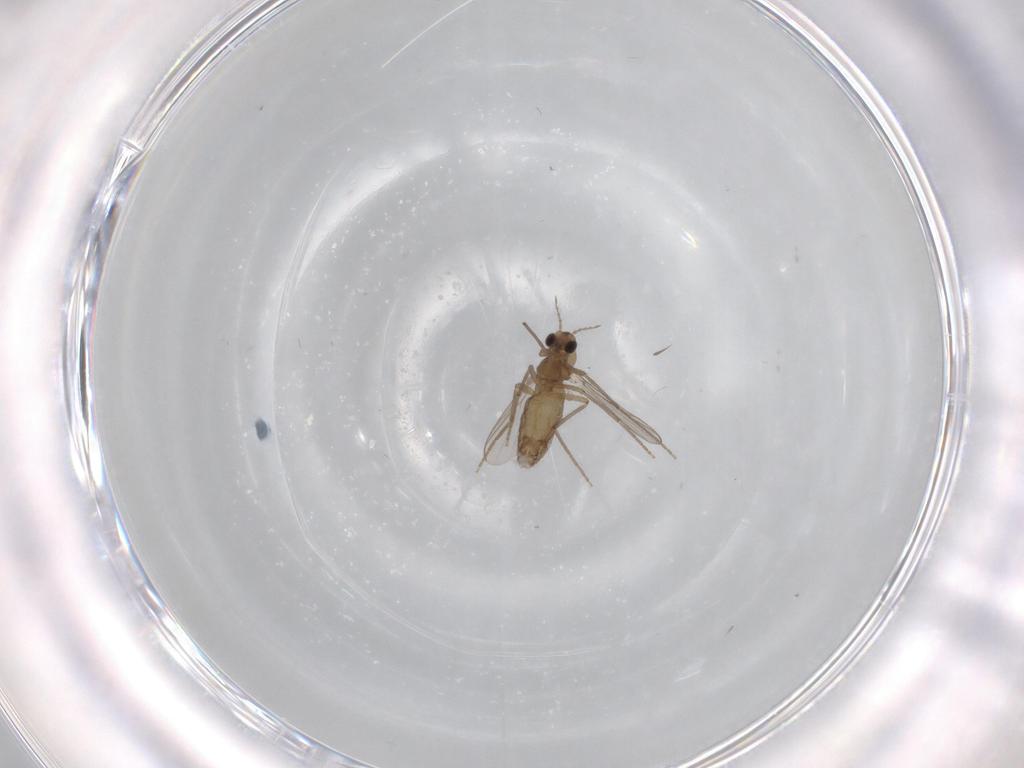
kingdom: Animalia
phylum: Arthropoda
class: Insecta
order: Diptera
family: Chironomidae
